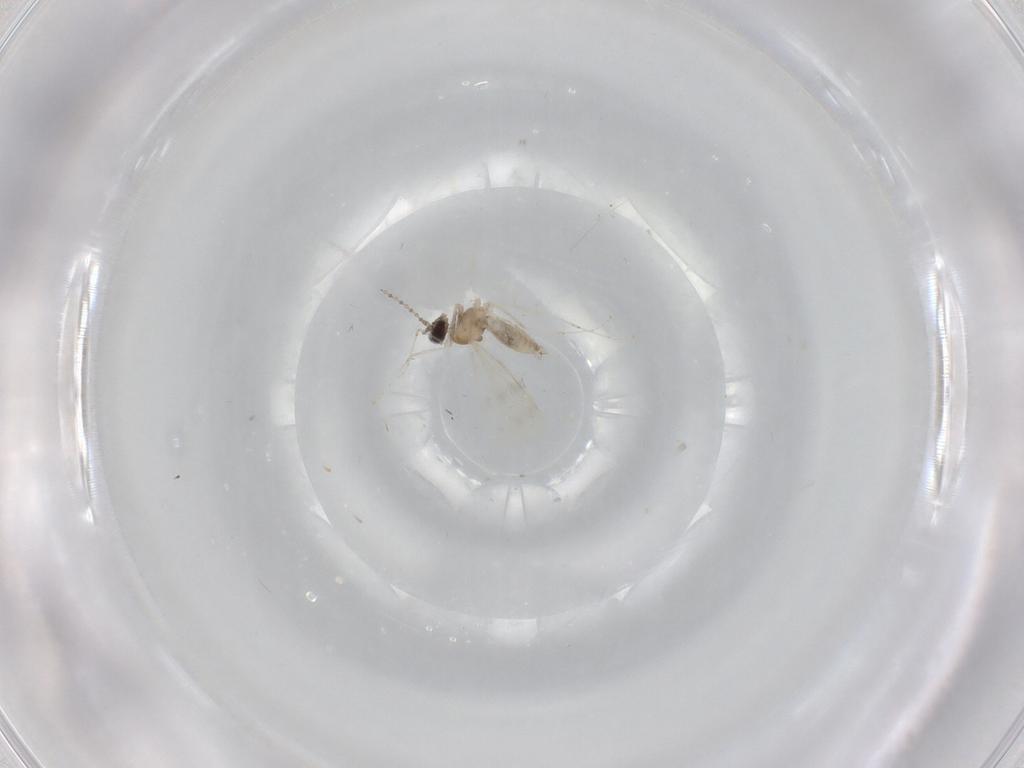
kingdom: Animalia
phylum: Arthropoda
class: Insecta
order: Diptera
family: Cecidomyiidae
